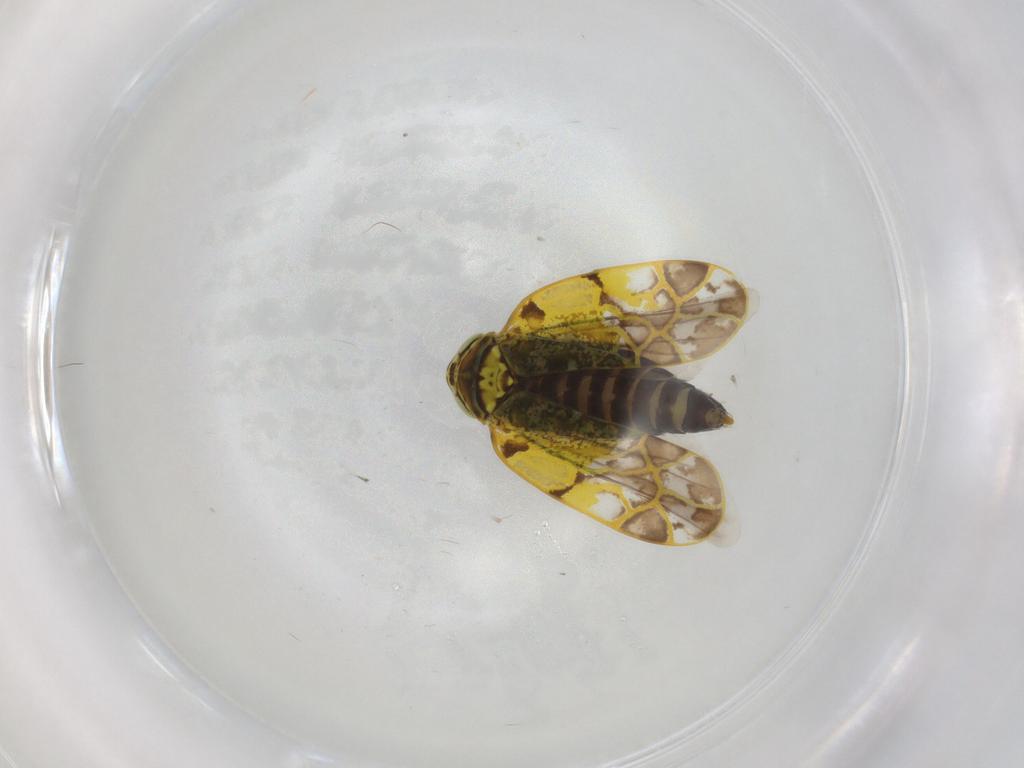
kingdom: Animalia
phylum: Arthropoda
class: Insecta
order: Hemiptera
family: Cicadellidae
